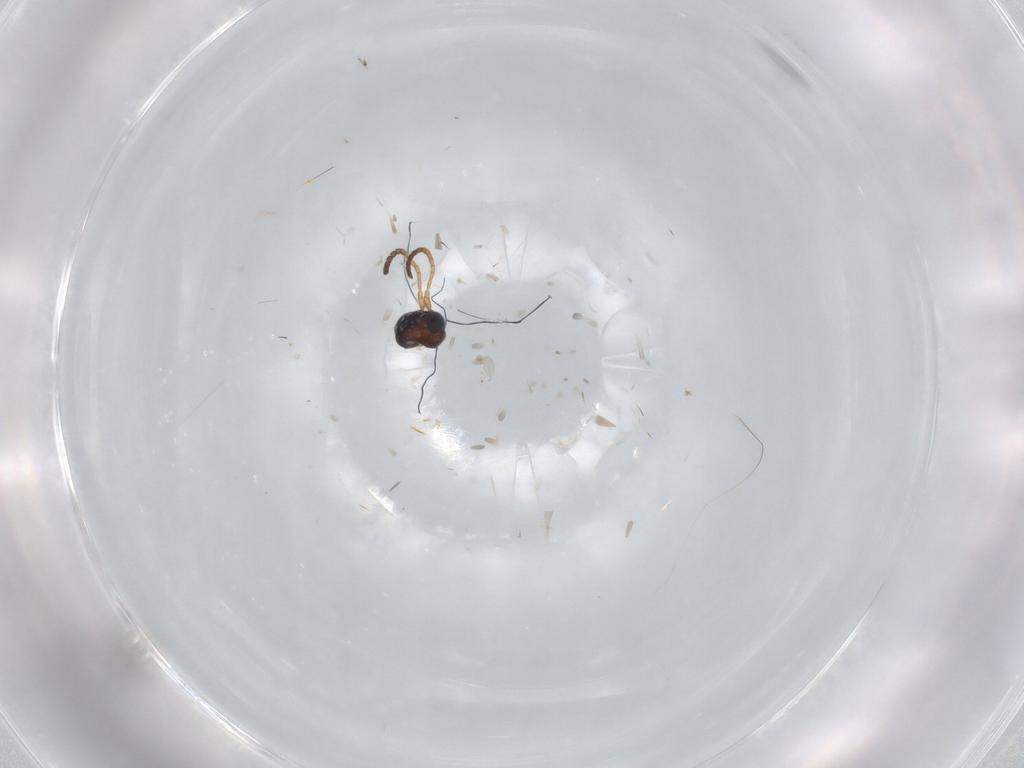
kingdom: Animalia
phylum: Arthropoda
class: Insecta
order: Hymenoptera
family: Braconidae
